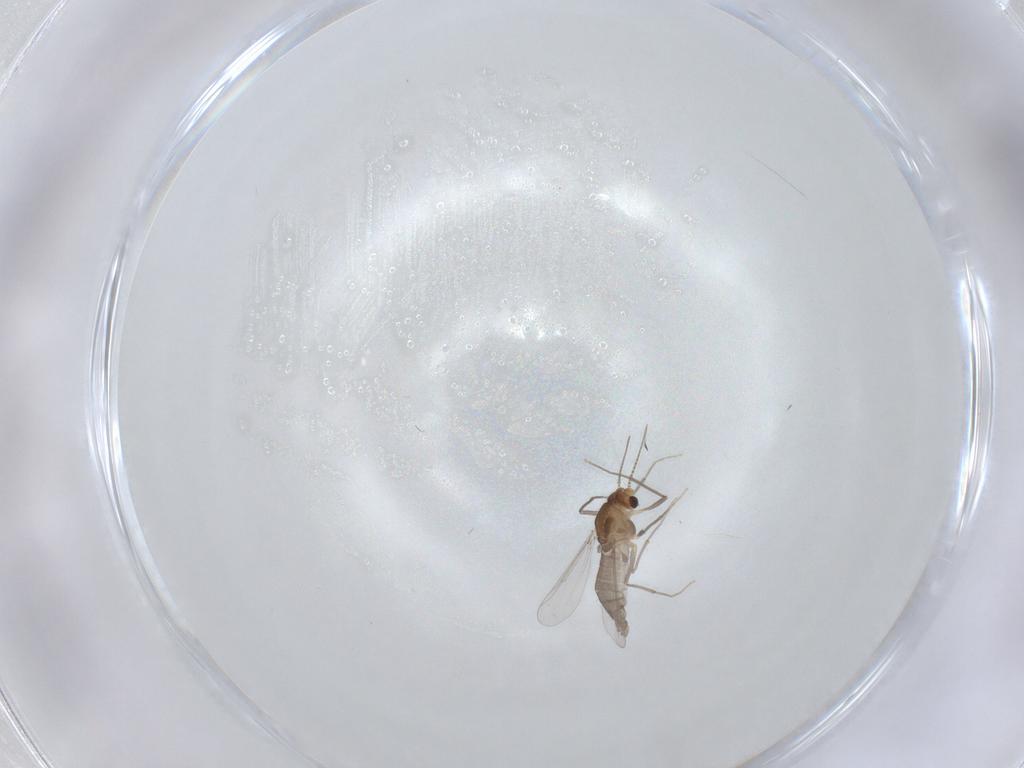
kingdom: Animalia
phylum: Arthropoda
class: Insecta
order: Diptera
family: Chironomidae
